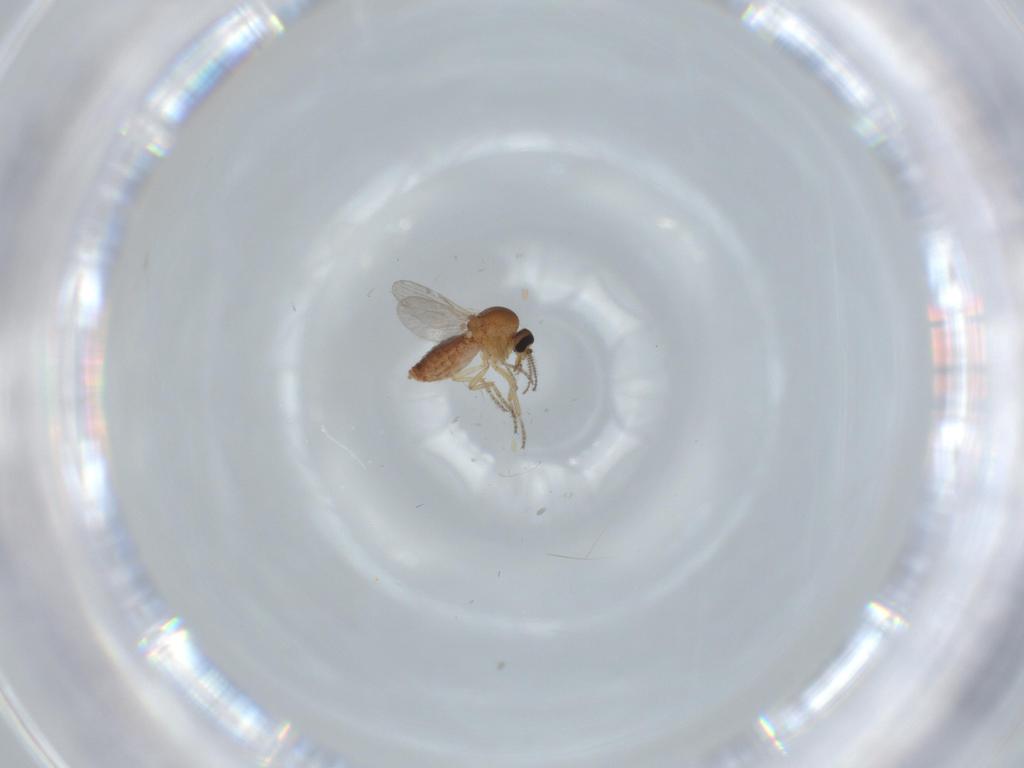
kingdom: Animalia
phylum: Arthropoda
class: Insecta
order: Diptera
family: Ceratopogonidae
